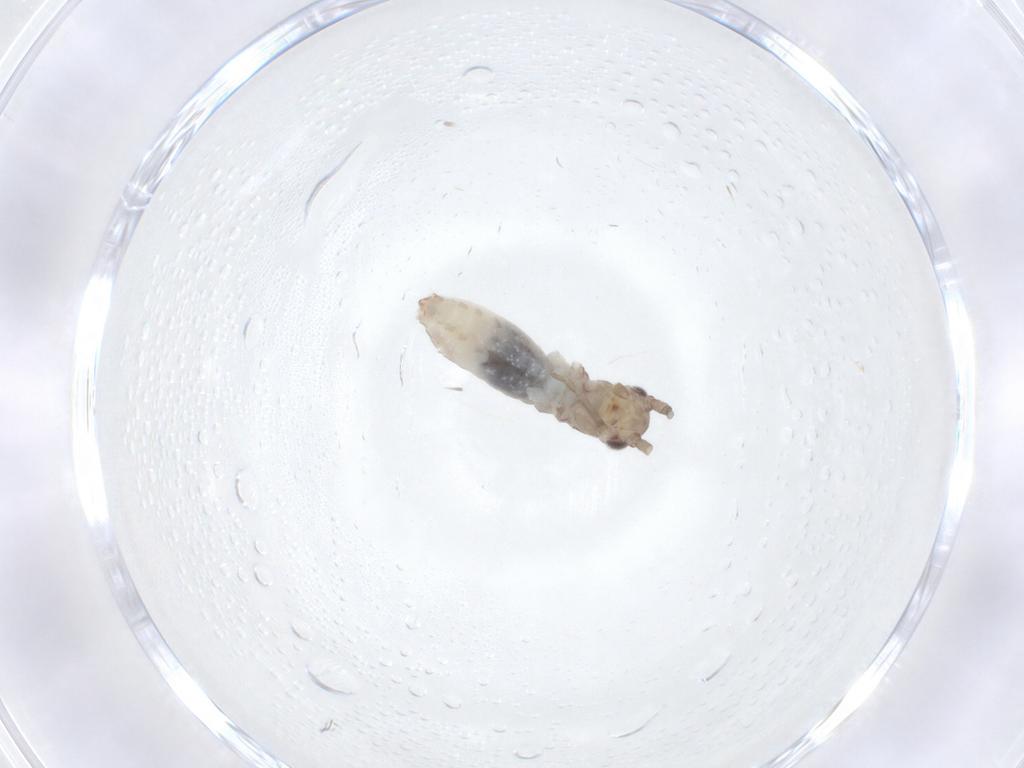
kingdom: Animalia
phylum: Arthropoda
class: Insecta
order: Orthoptera
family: Gryllidae
